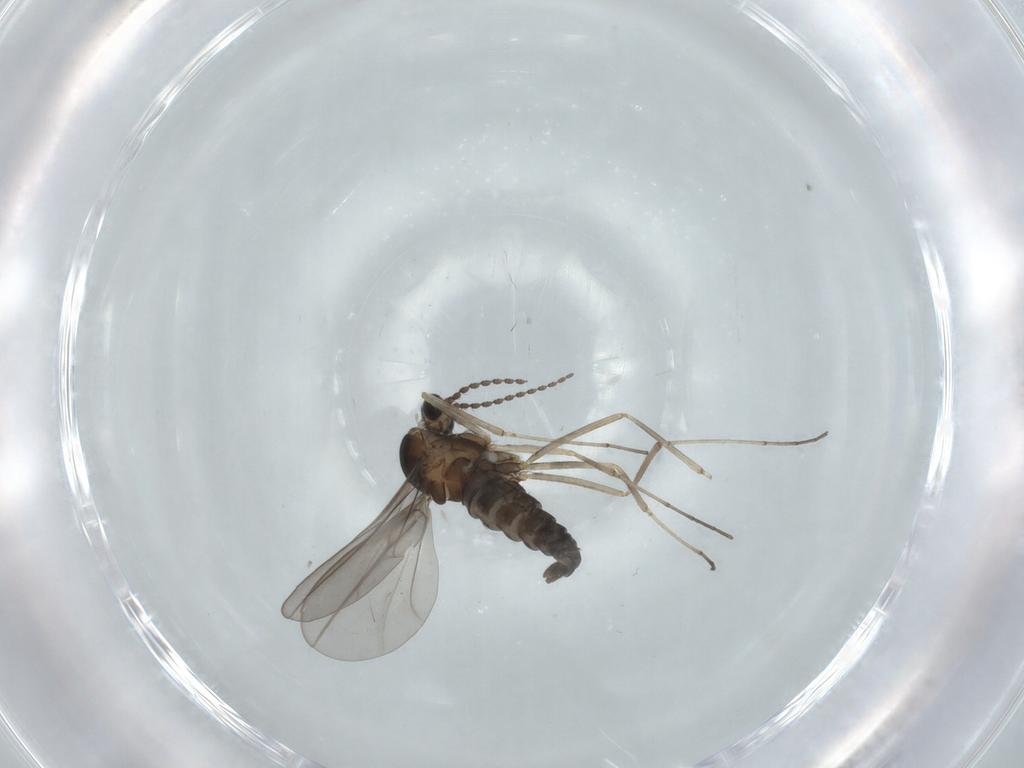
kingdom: Animalia
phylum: Arthropoda
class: Insecta
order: Diptera
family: Cecidomyiidae
